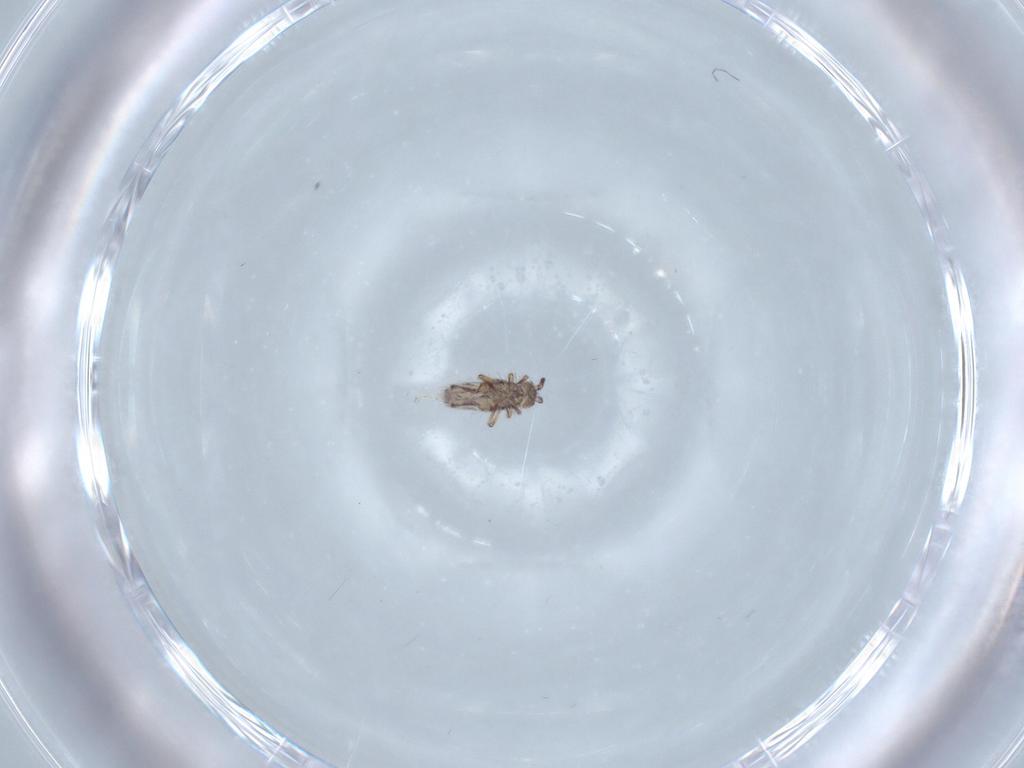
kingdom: Animalia
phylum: Arthropoda
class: Collembola
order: Entomobryomorpha
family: Entomobryidae
